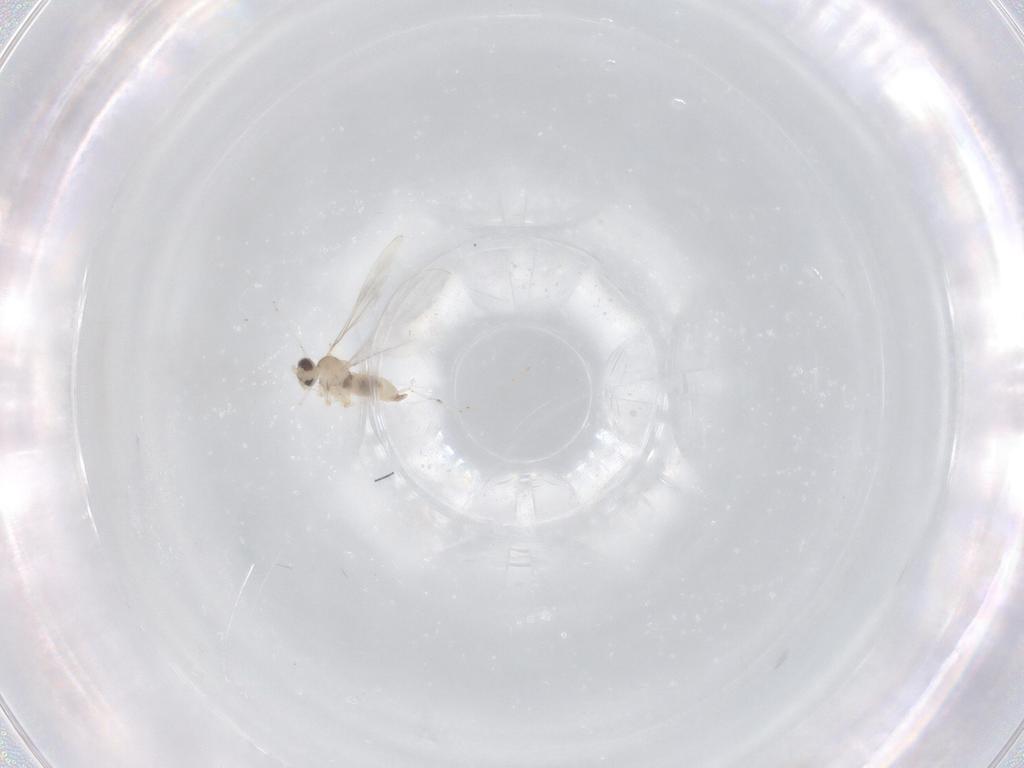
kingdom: Animalia
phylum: Arthropoda
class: Insecta
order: Diptera
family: Cecidomyiidae
